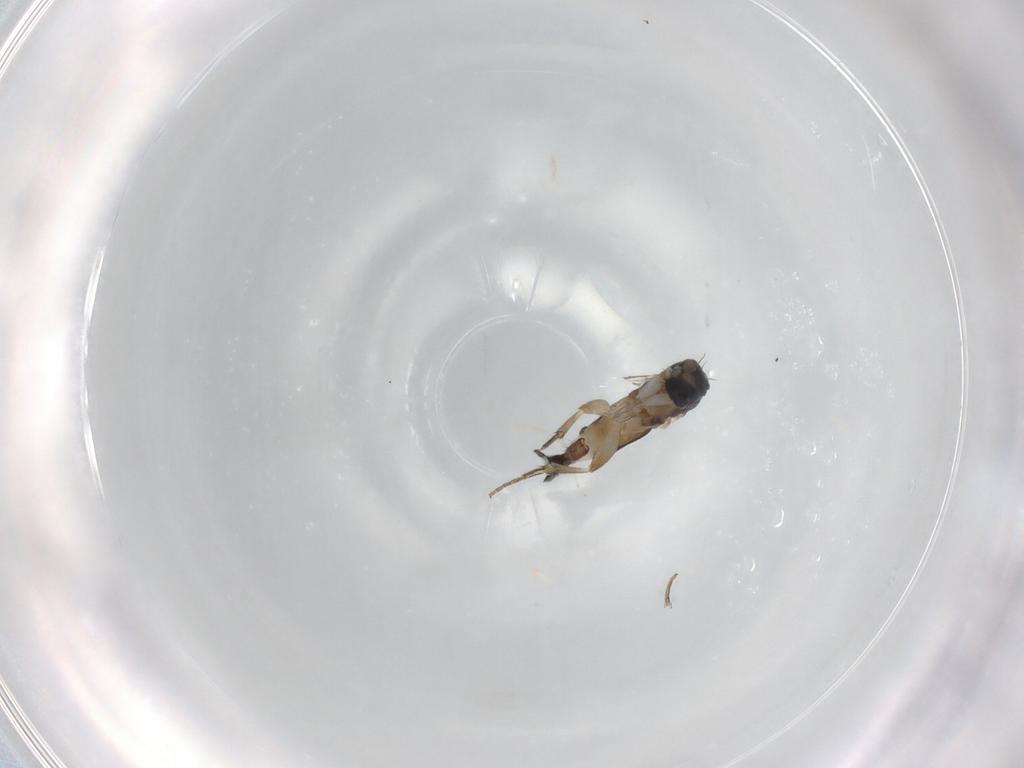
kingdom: Animalia
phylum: Arthropoda
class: Insecta
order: Diptera
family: Phoridae
